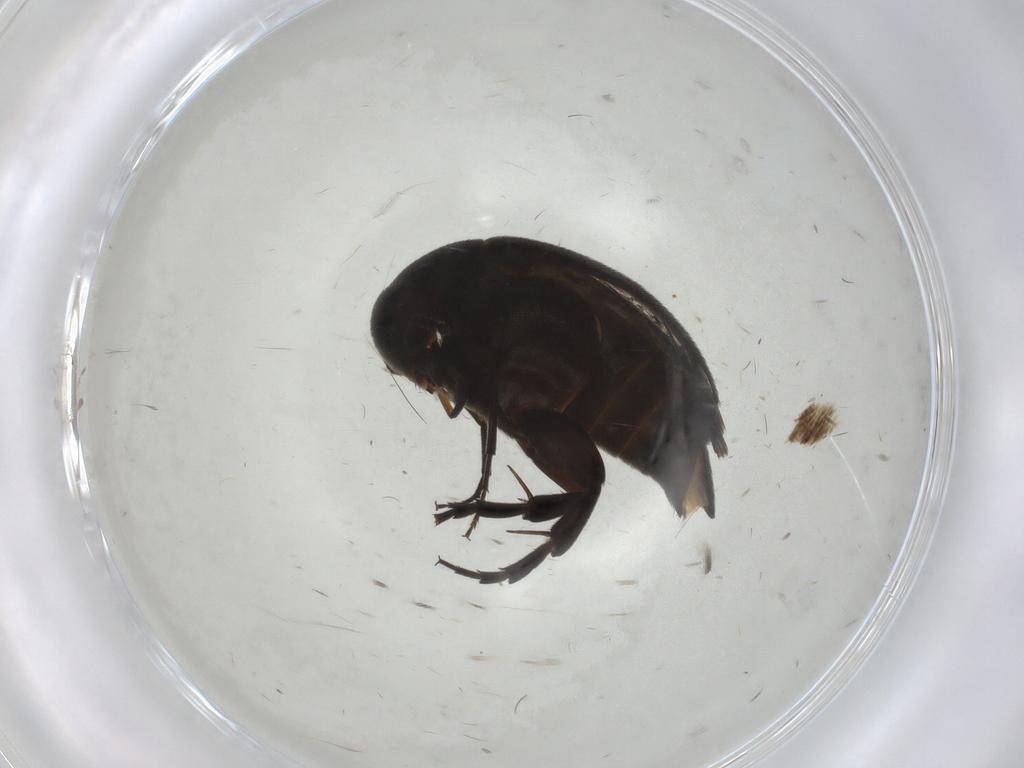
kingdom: Animalia
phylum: Arthropoda
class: Insecta
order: Coleoptera
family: Mordellidae
